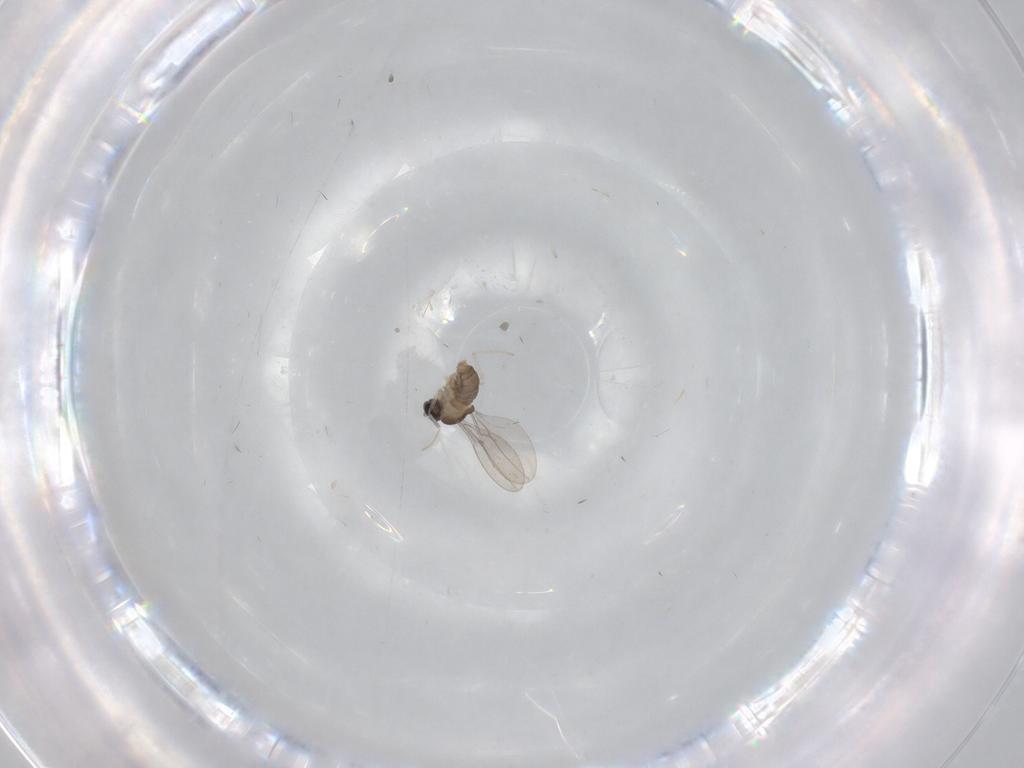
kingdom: Animalia
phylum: Arthropoda
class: Insecta
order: Diptera
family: Cecidomyiidae
